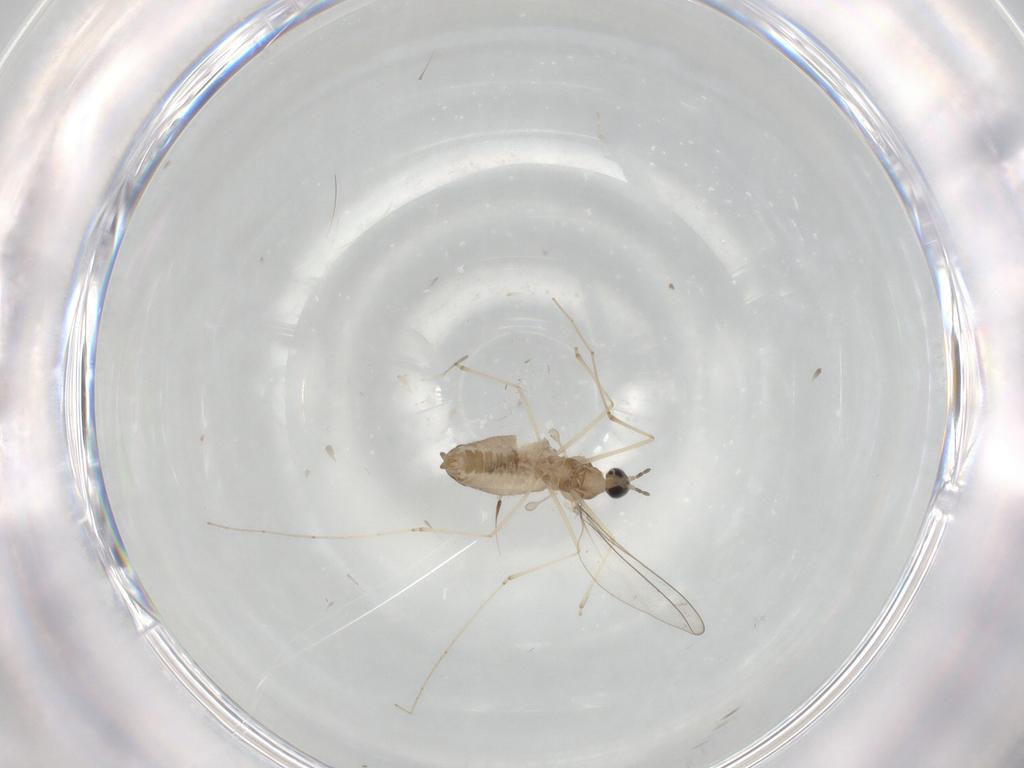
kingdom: Animalia
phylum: Arthropoda
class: Insecta
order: Diptera
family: Cecidomyiidae
